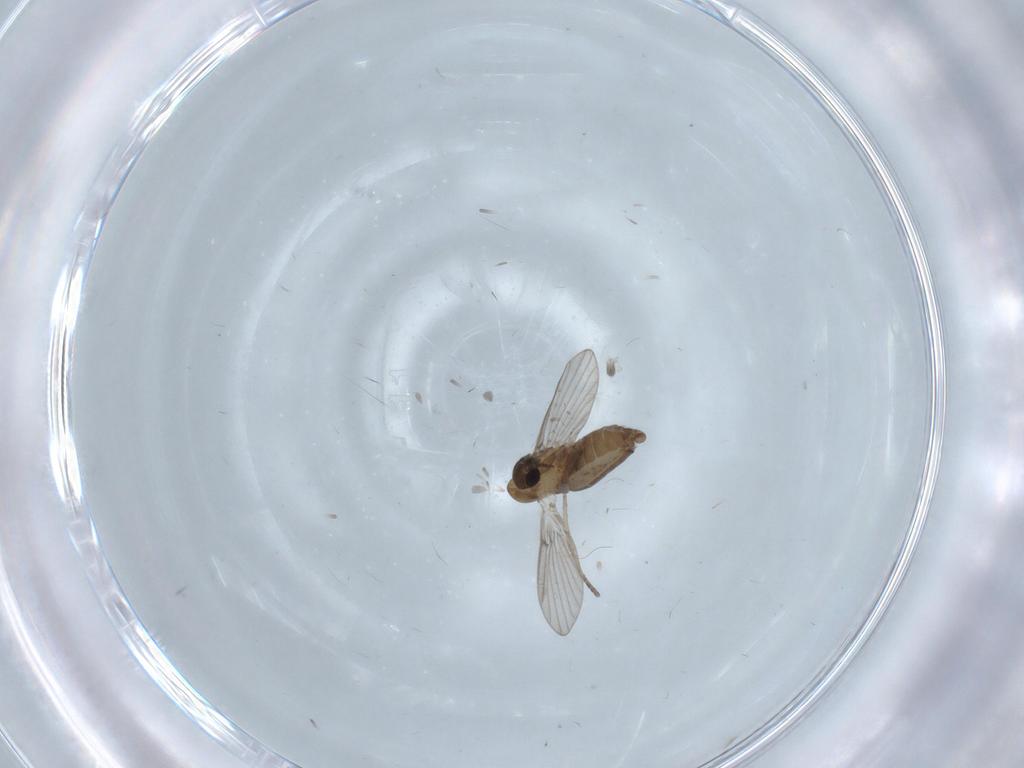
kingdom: Animalia
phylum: Arthropoda
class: Insecta
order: Diptera
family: Psychodidae
